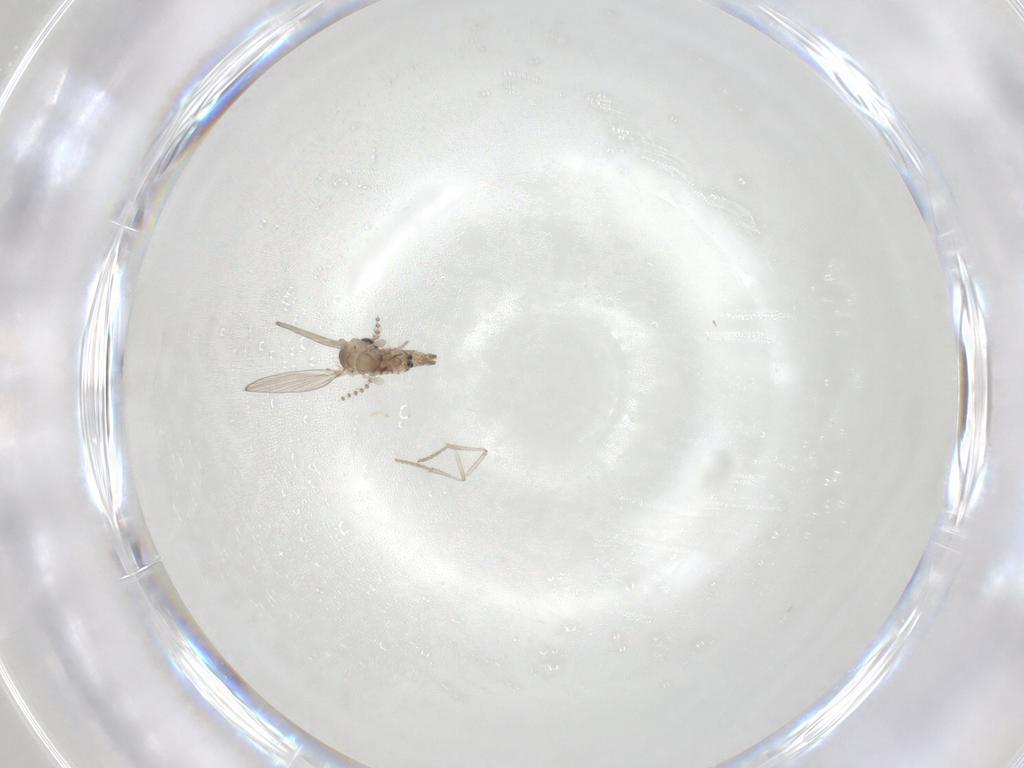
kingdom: Animalia
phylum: Arthropoda
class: Insecta
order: Diptera
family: Psychodidae
